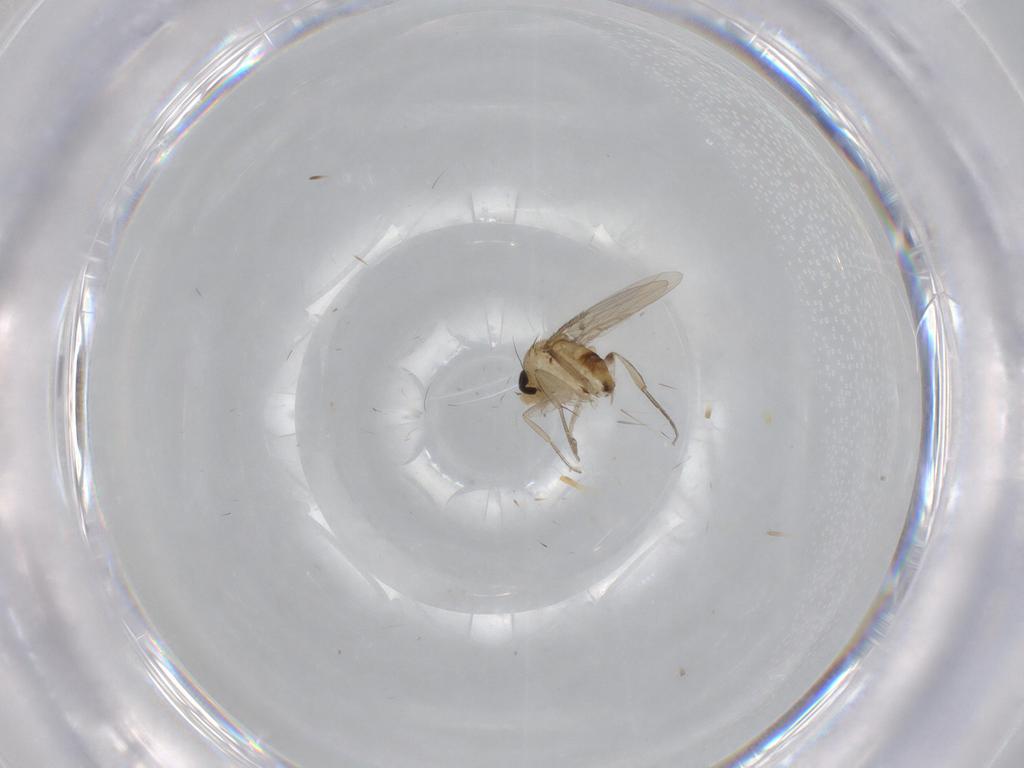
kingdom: Animalia
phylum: Arthropoda
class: Insecta
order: Diptera
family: Phoridae
